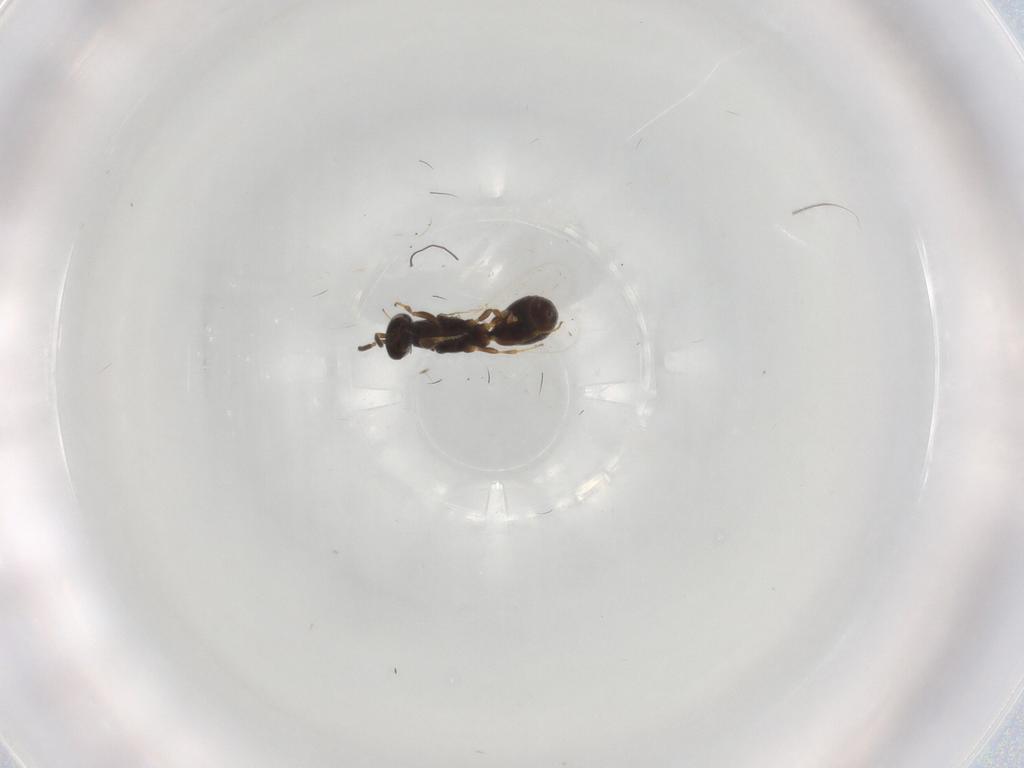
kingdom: Animalia
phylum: Arthropoda
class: Insecta
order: Hymenoptera
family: Bethylidae
